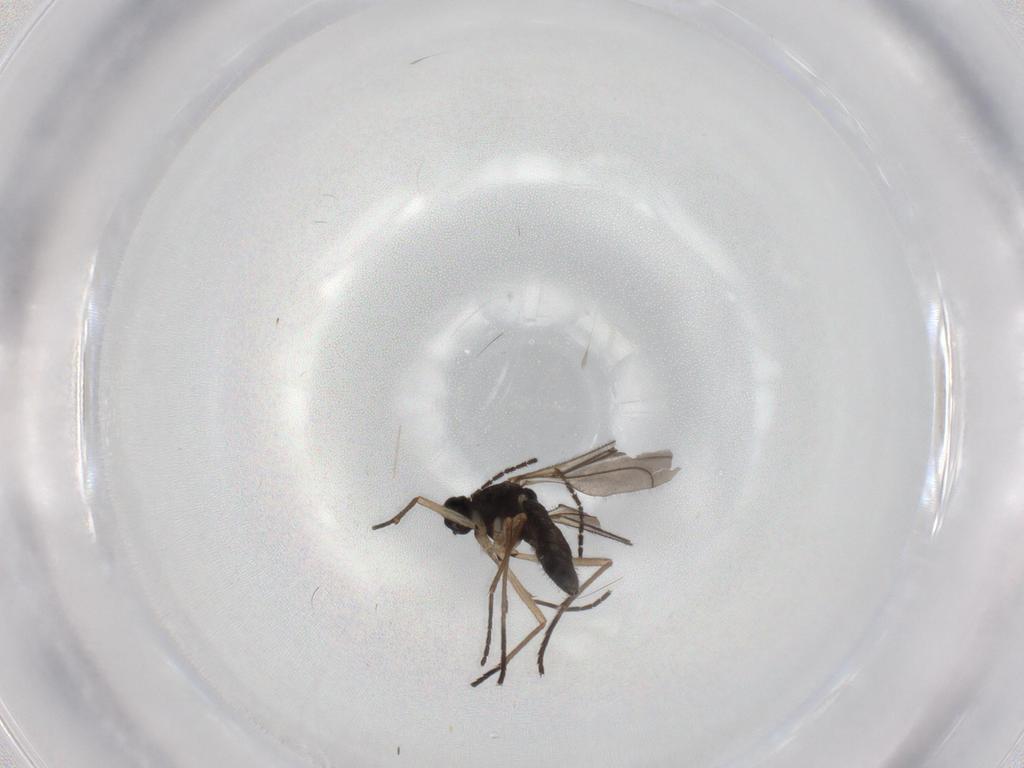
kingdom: Animalia
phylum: Arthropoda
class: Insecta
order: Diptera
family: Sciaridae
